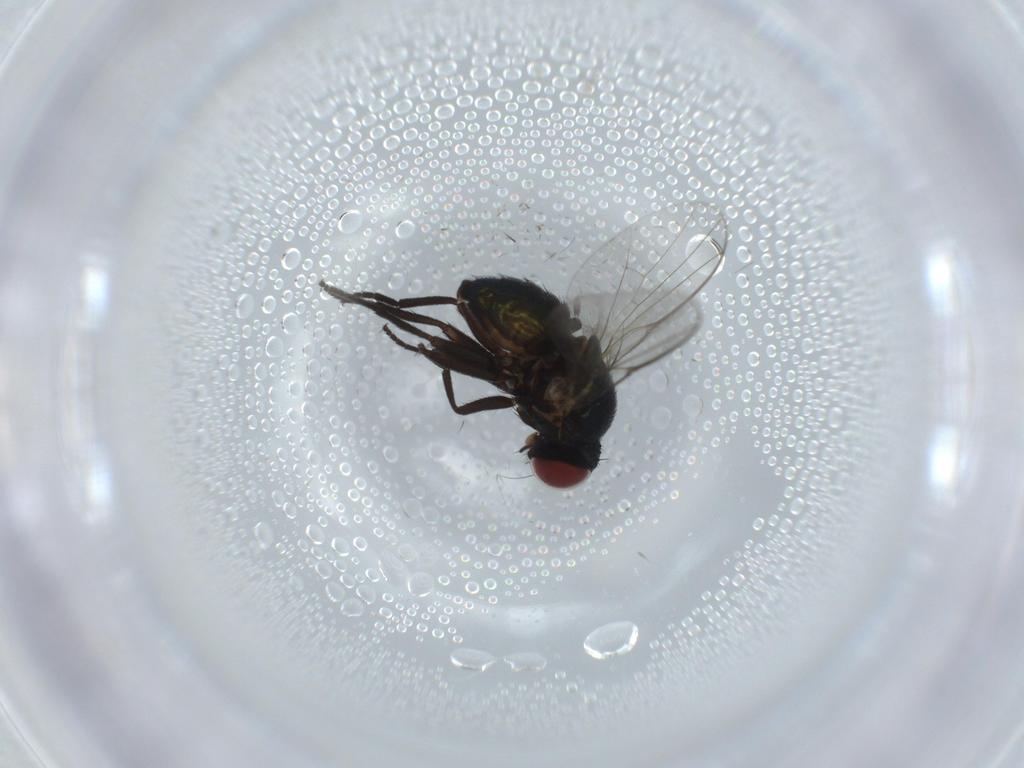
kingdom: Animalia
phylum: Arthropoda
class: Insecta
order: Diptera
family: Agromyzidae
